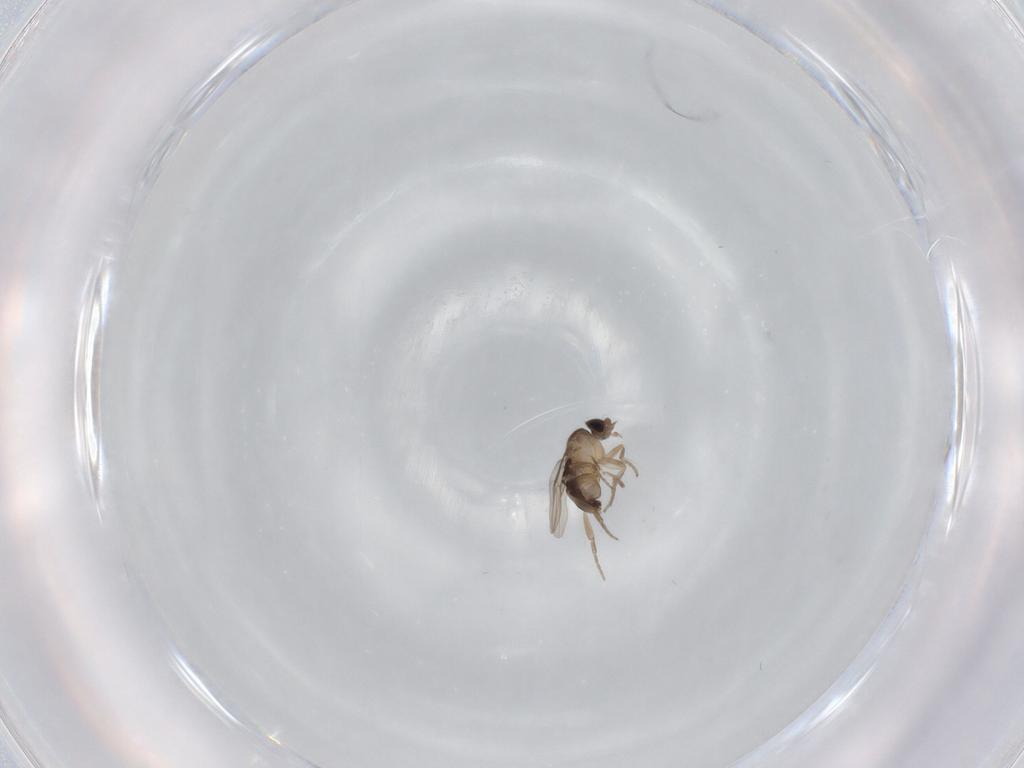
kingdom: Animalia
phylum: Arthropoda
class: Insecta
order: Diptera
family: Phoridae
